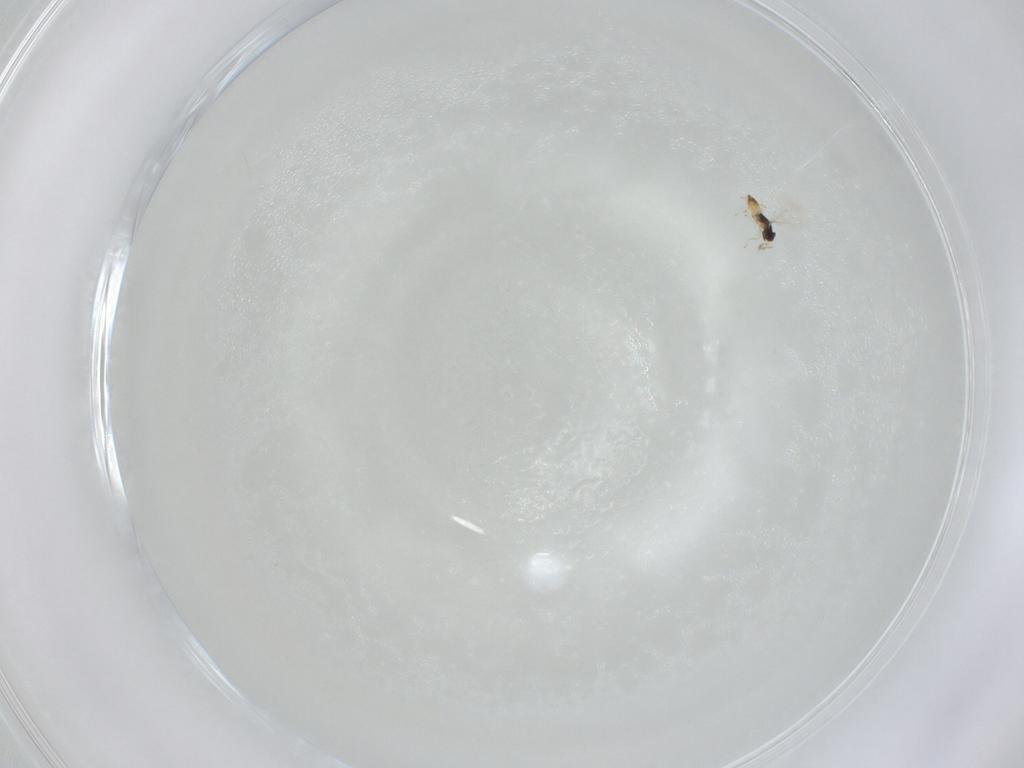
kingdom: Animalia
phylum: Arthropoda
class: Insecta
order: Hymenoptera
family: Eulophidae
